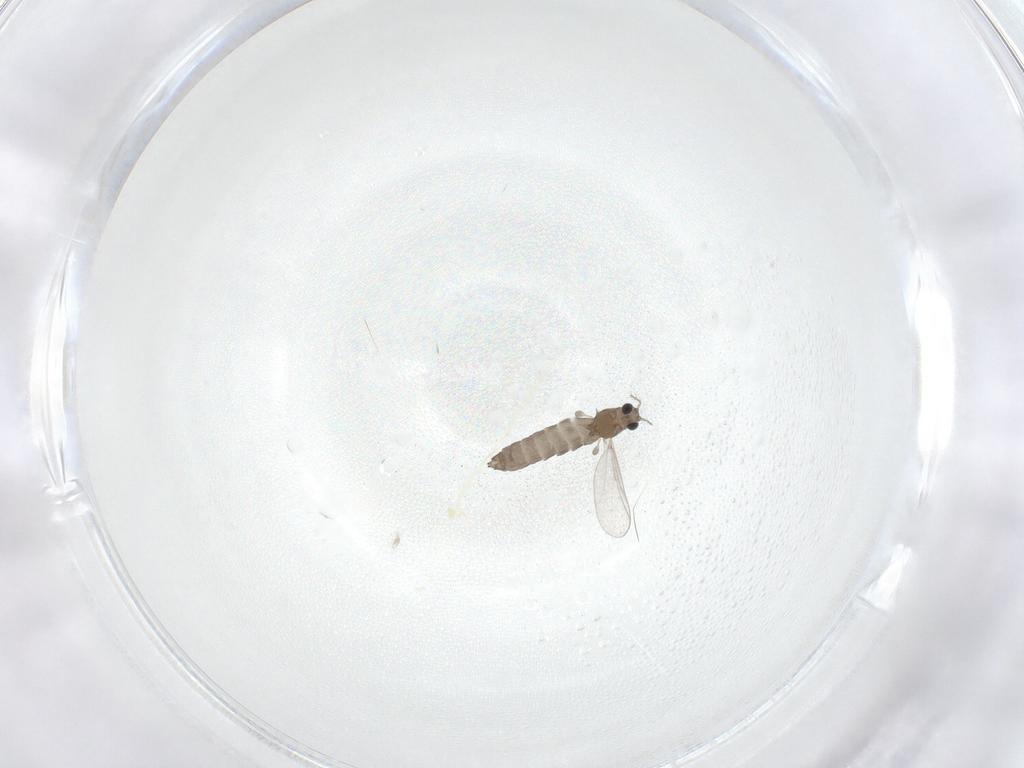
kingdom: Animalia
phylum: Arthropoda
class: Insecta
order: Diptera
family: Chironomidae
